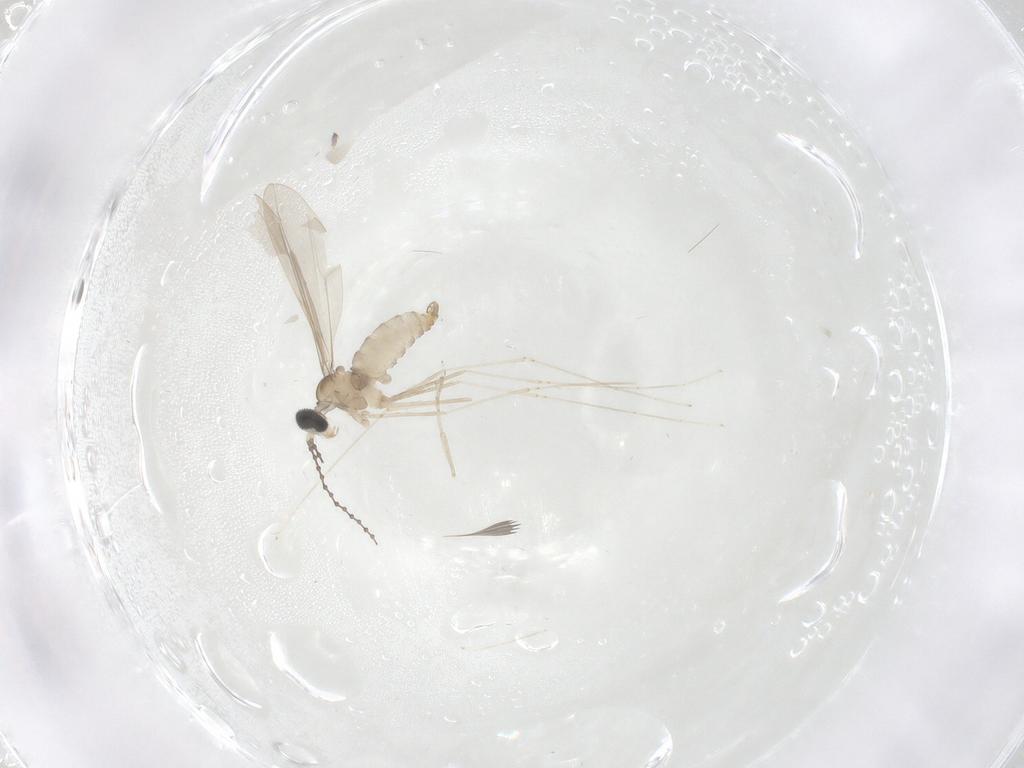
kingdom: Animalia
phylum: Arthropoda
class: Insecta
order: Diptera
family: Cecidomyiidae
